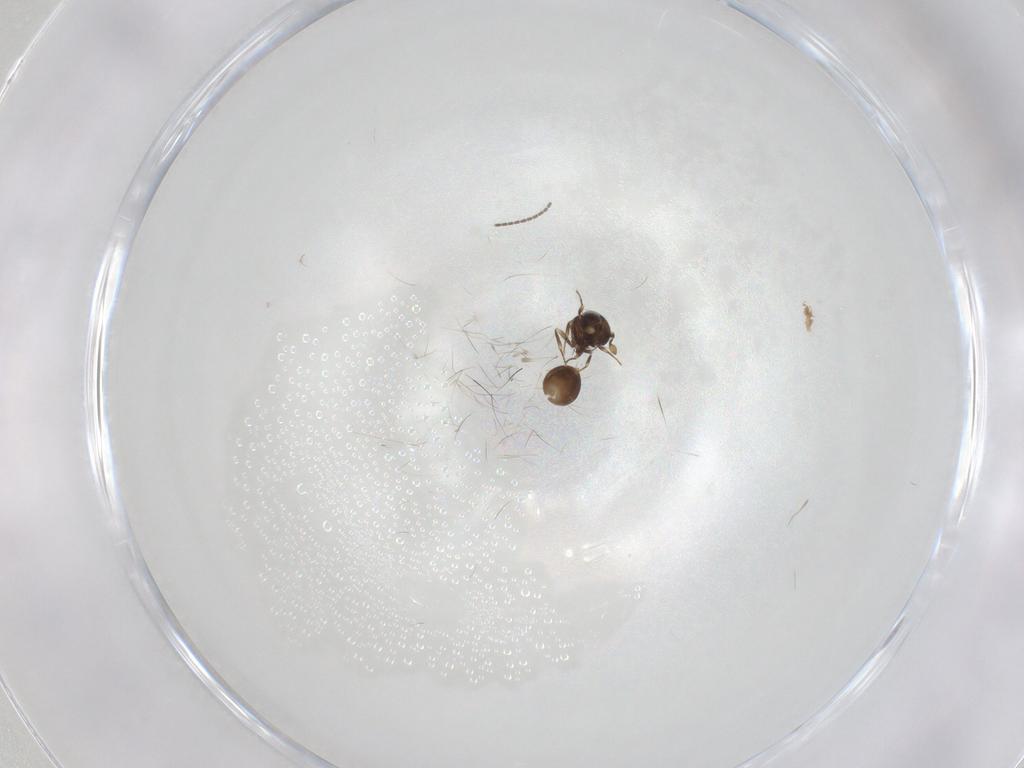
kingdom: Animalia
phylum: Arthropoda
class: Insecta
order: Hymenoptera
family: Scelionidae
